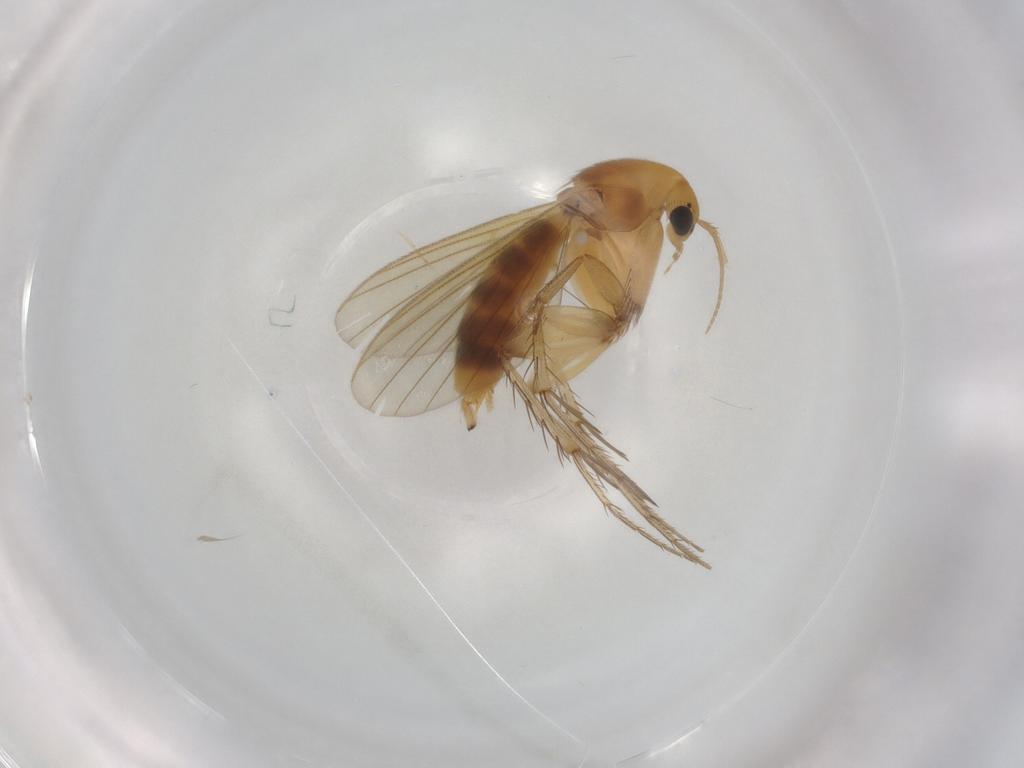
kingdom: Animalia
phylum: Arthropoda
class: Insecta
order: Diptera
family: Mycetophilidae
